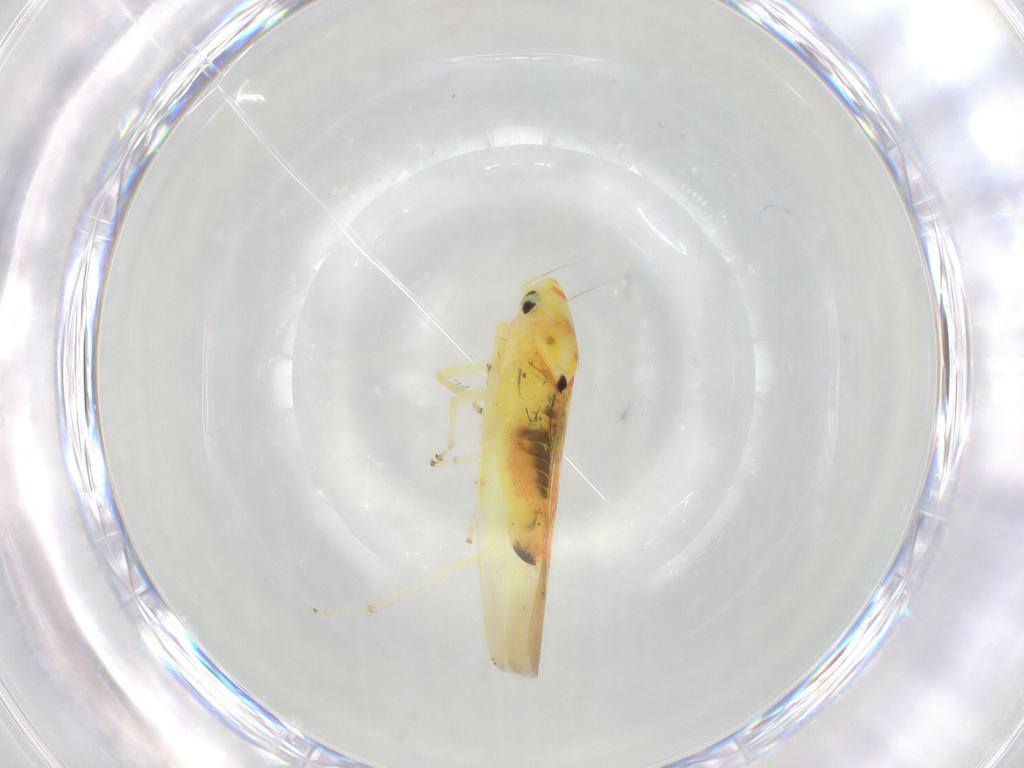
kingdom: Animalia
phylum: Arthropoda
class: Insecta
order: Hemiptera
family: Cicadellidae
